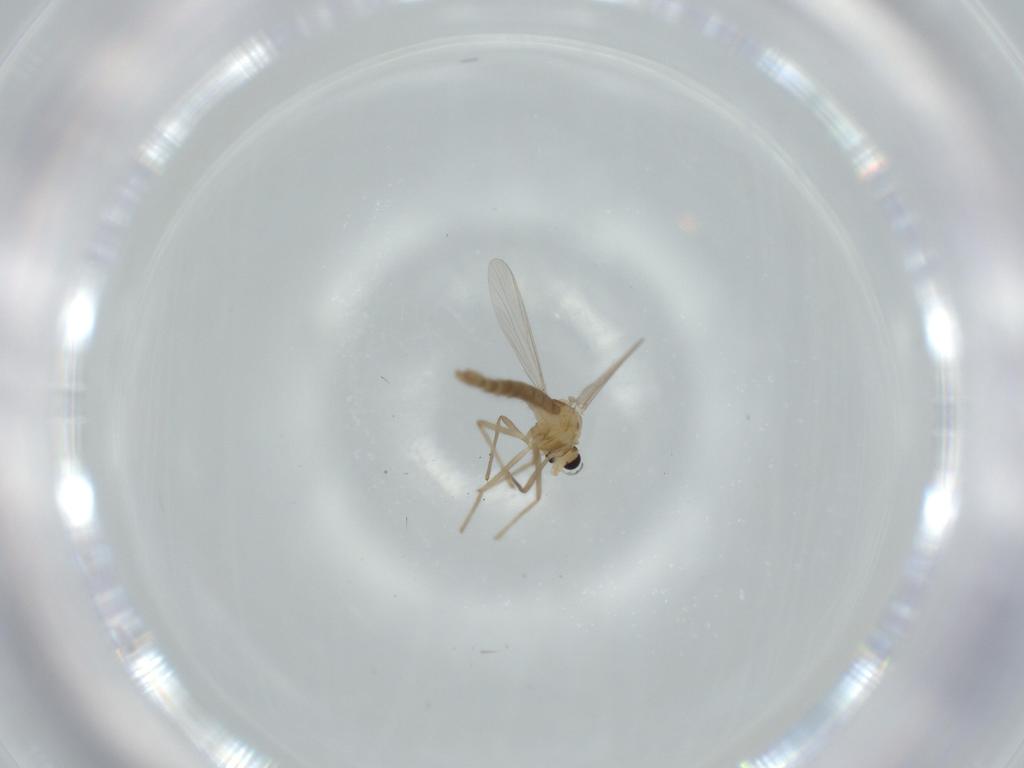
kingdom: Animalia
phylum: Arthropoda
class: Insecta
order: Diptera
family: Chironomidae
